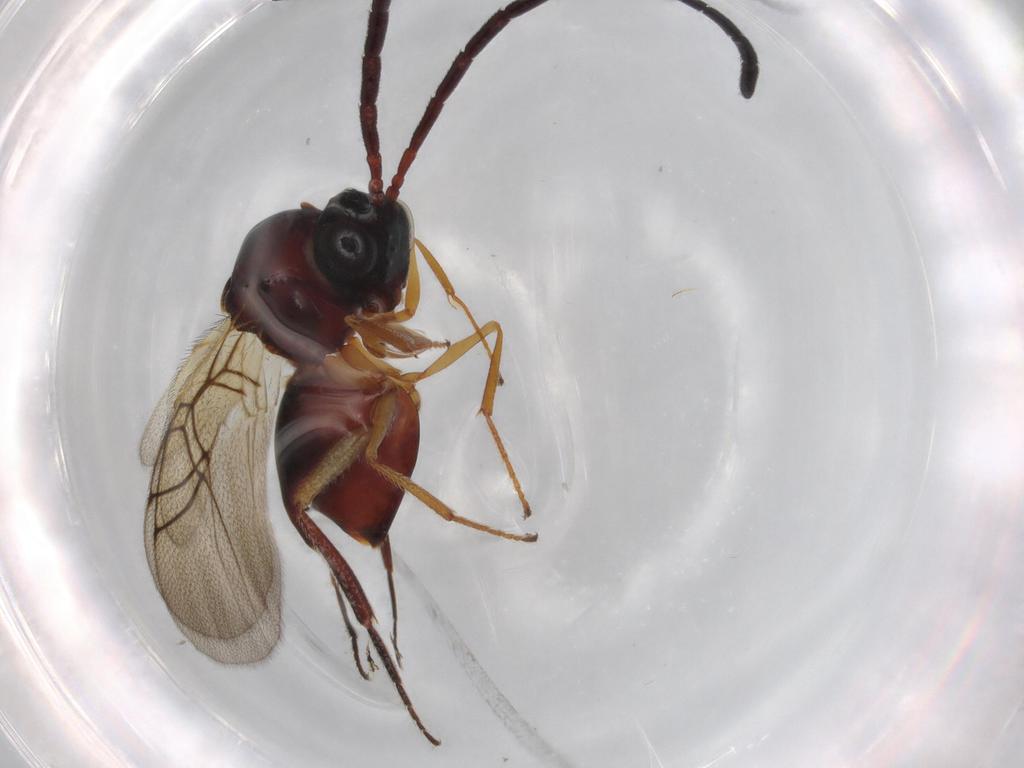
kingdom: Animalia
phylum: Arthropoda
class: Insecta
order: Hymenoptera
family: Figitidae
